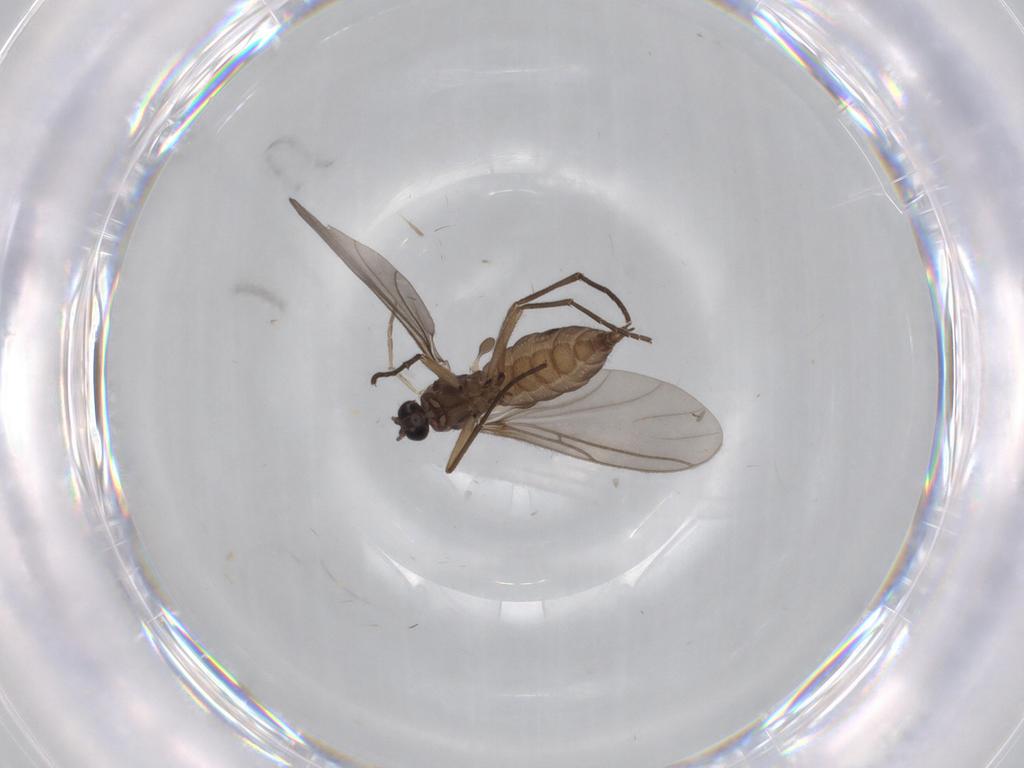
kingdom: Animalia
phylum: Arthropoda
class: Insecta
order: Diptera
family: Sciaridae
